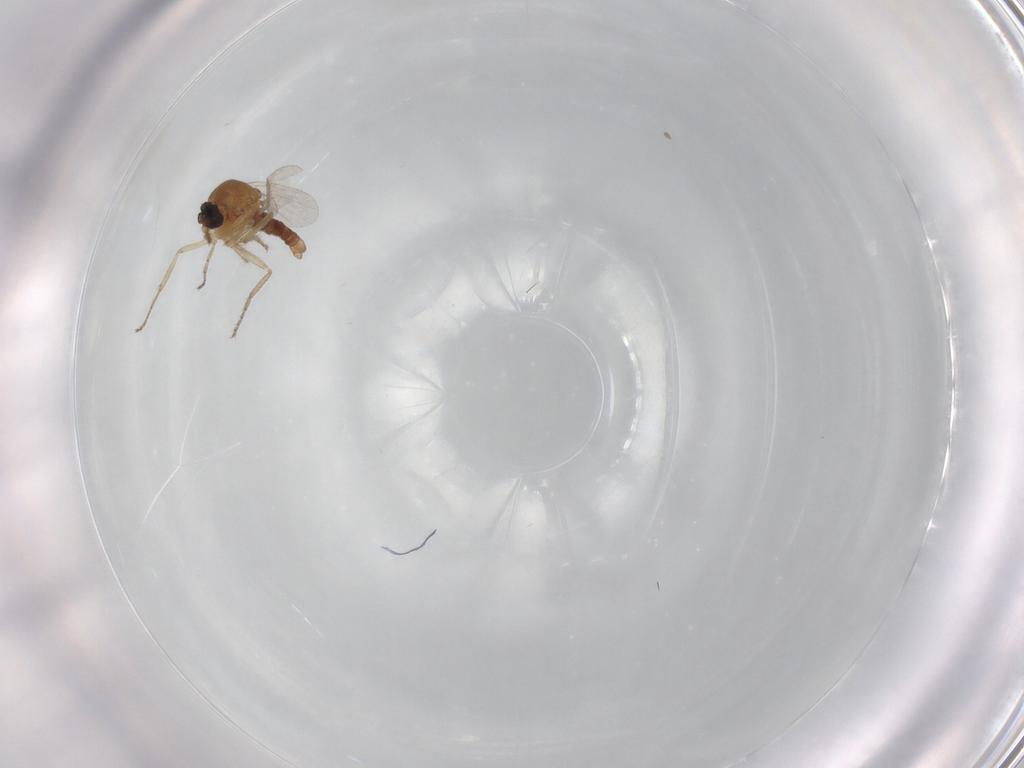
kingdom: Animalia
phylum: Arthropoda
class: Insecta
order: Diptera
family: Ceratopogonidae
